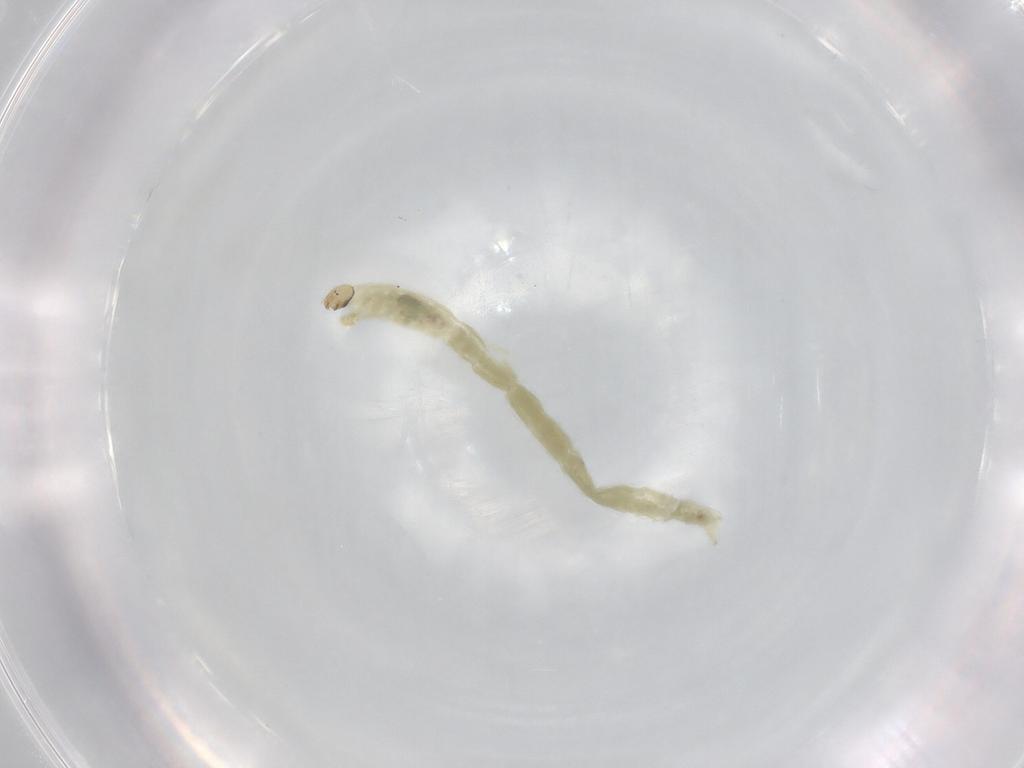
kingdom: Animalia
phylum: Arthropoda
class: Insecta
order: Diptera
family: Chironomidae
